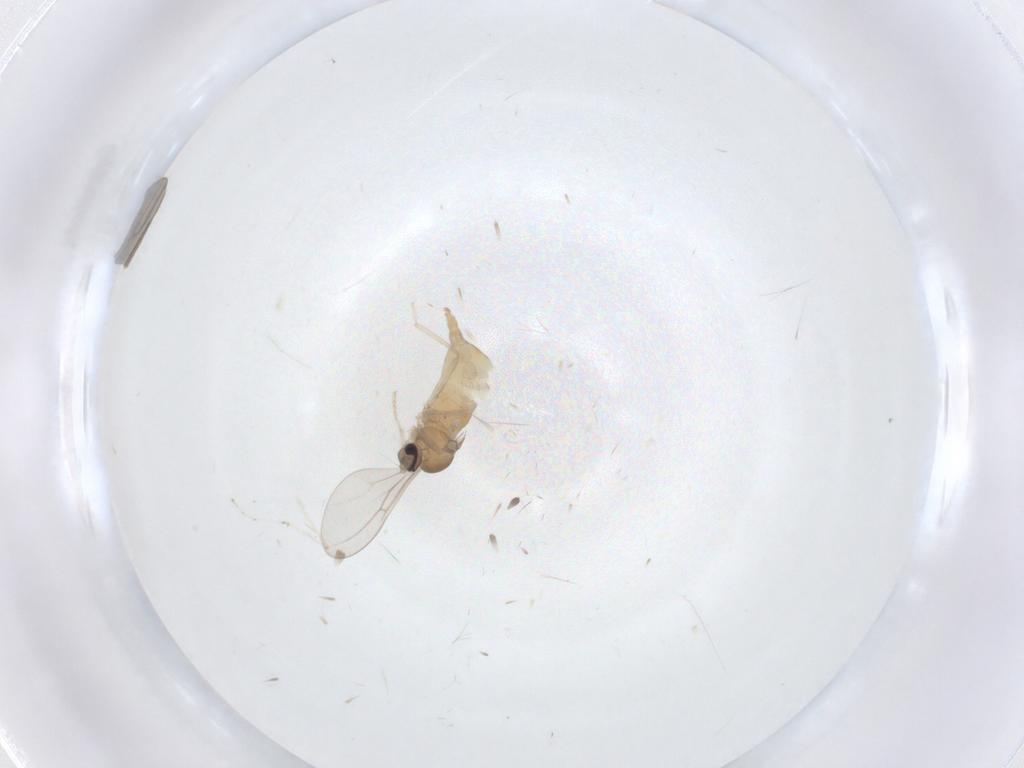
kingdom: Animalia
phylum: Arthropoda
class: Insecta
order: Diptera
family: Cecidomyiidae
